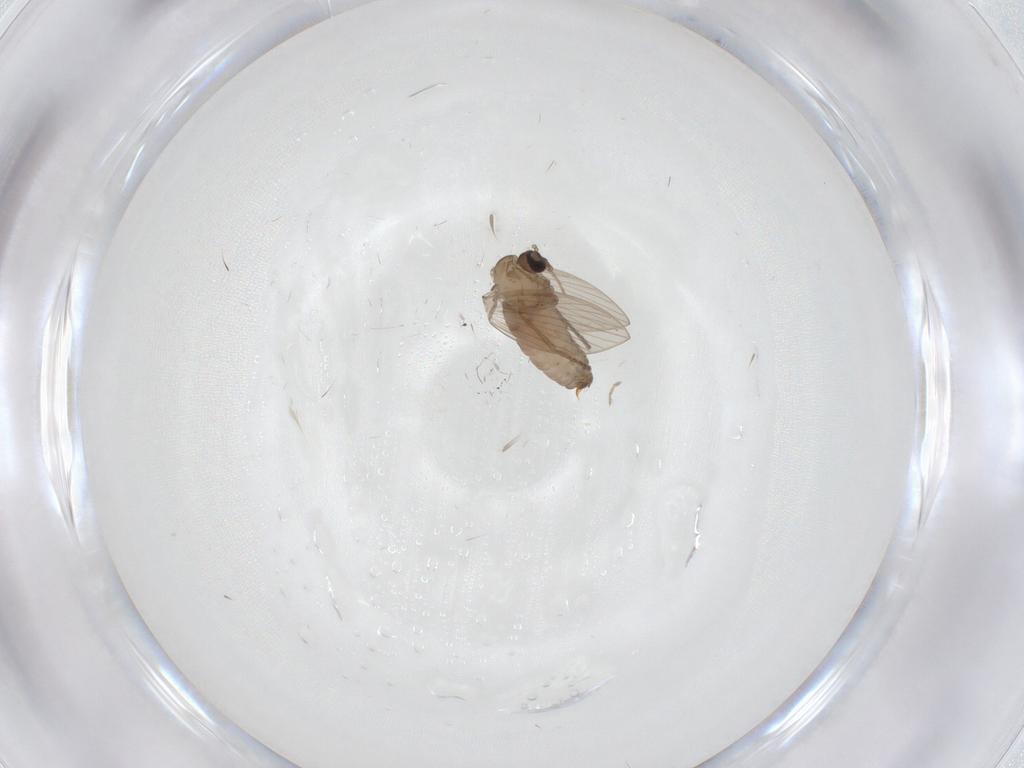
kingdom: Animalia
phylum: Arthropoda
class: Insecta
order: Diptera
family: Psychodidae
